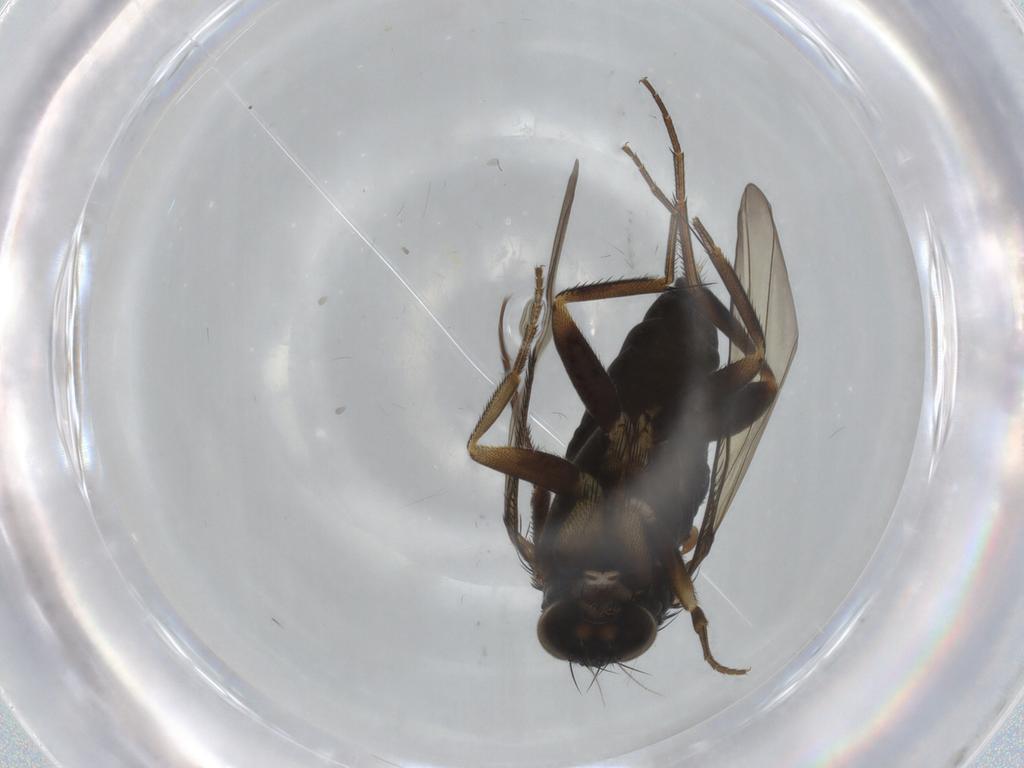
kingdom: Animalia
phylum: Arthropoda
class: Insecta
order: Diptera
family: Phoridae
